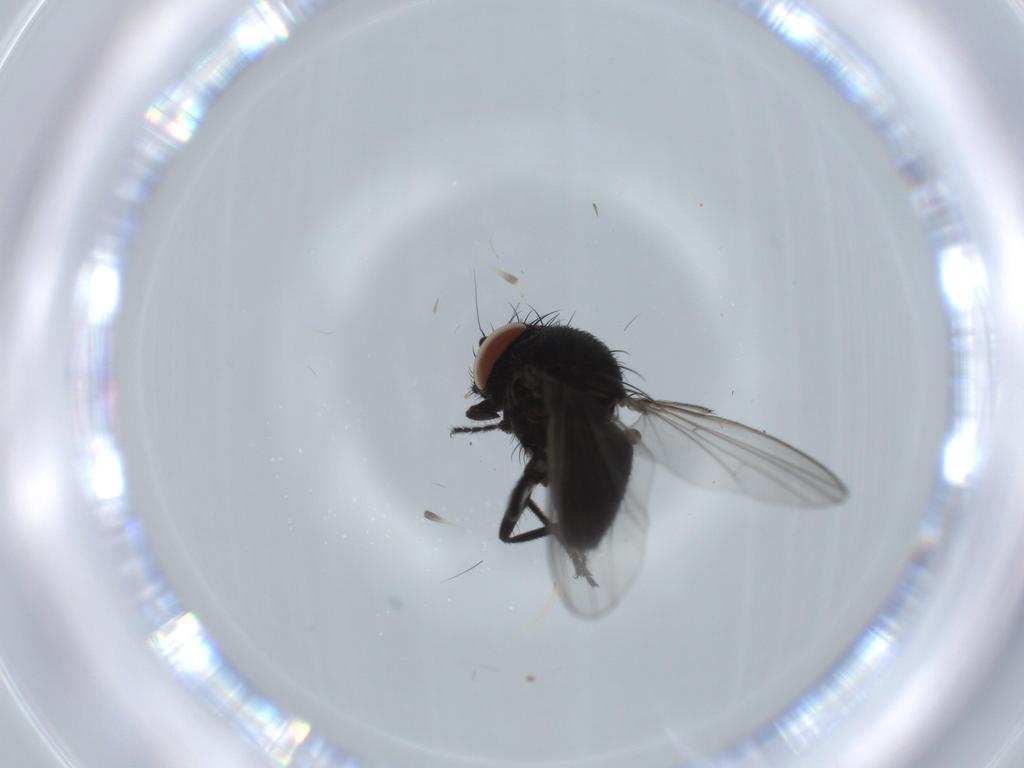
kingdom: Animalia
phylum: Arthropoda
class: Insecta
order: Diptera
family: Milichiidae
